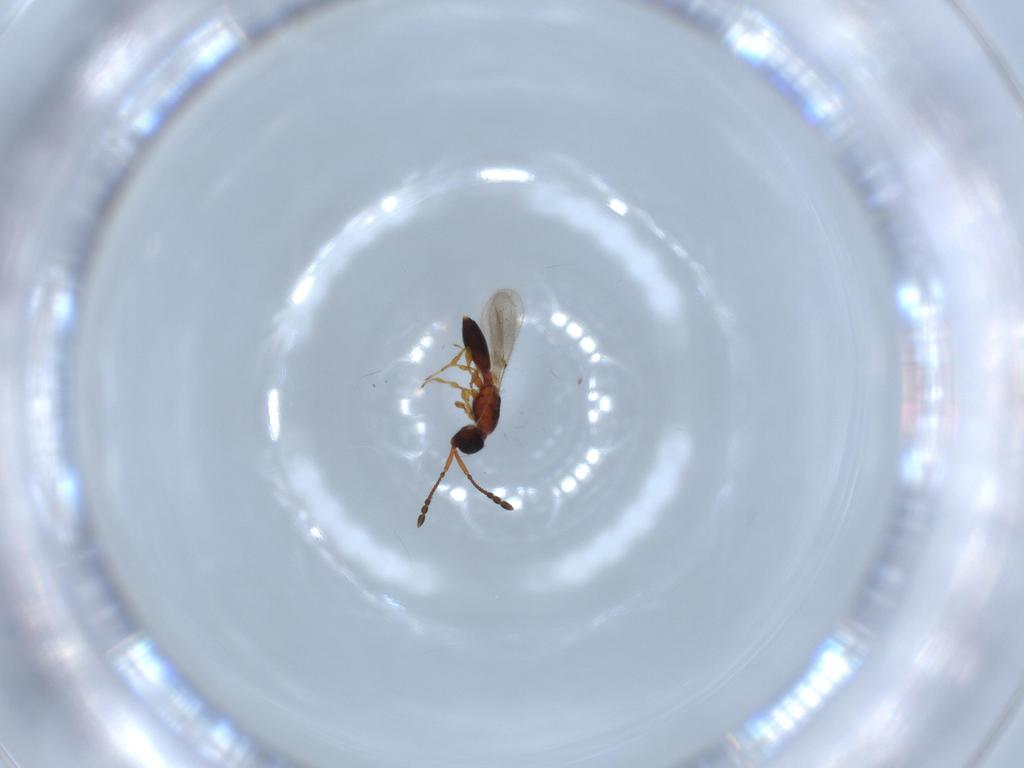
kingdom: Animalia
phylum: Arthropoda
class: Insecta
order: Hymenoptera
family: Diapriidae
